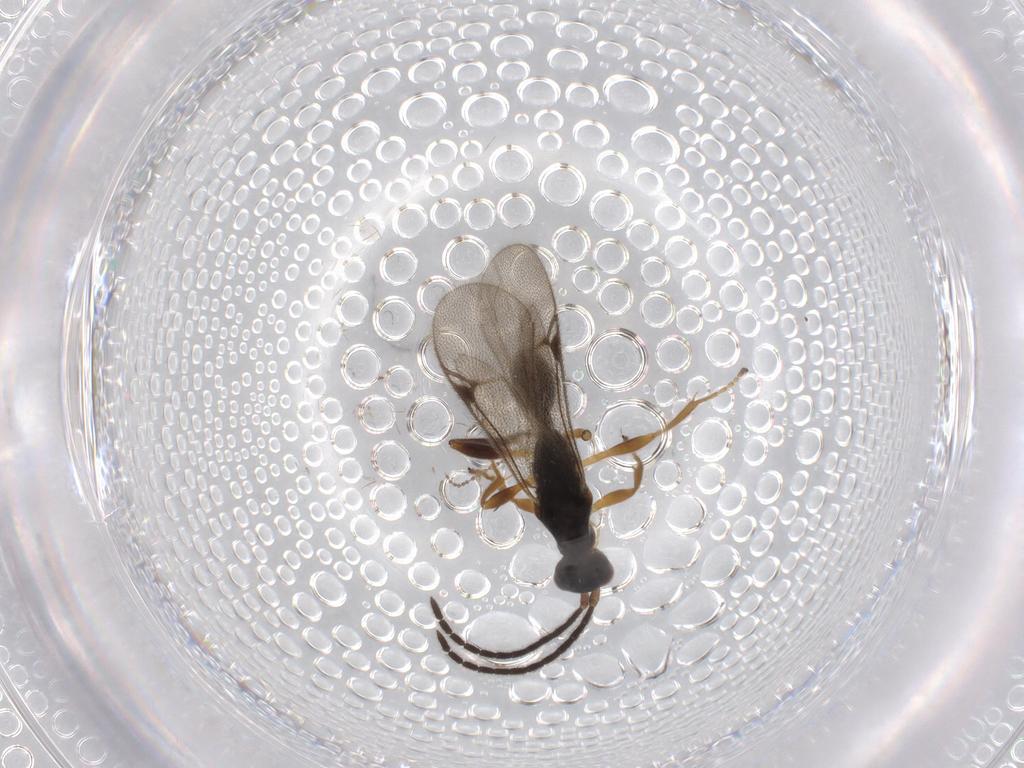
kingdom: Animalia
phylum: Arthropoda
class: Insecta
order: Hymenoptera
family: Proctotrupidae
